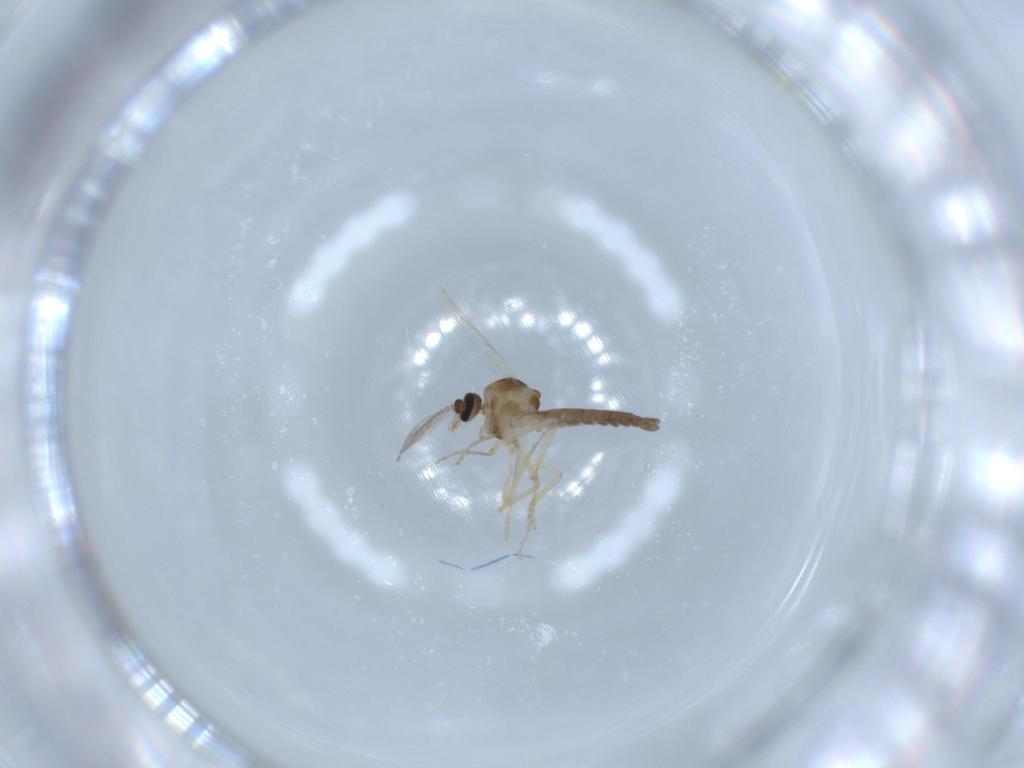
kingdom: Animalia
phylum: Arthropoda
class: Insecta
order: Diptera
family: Ceratopogonidae
